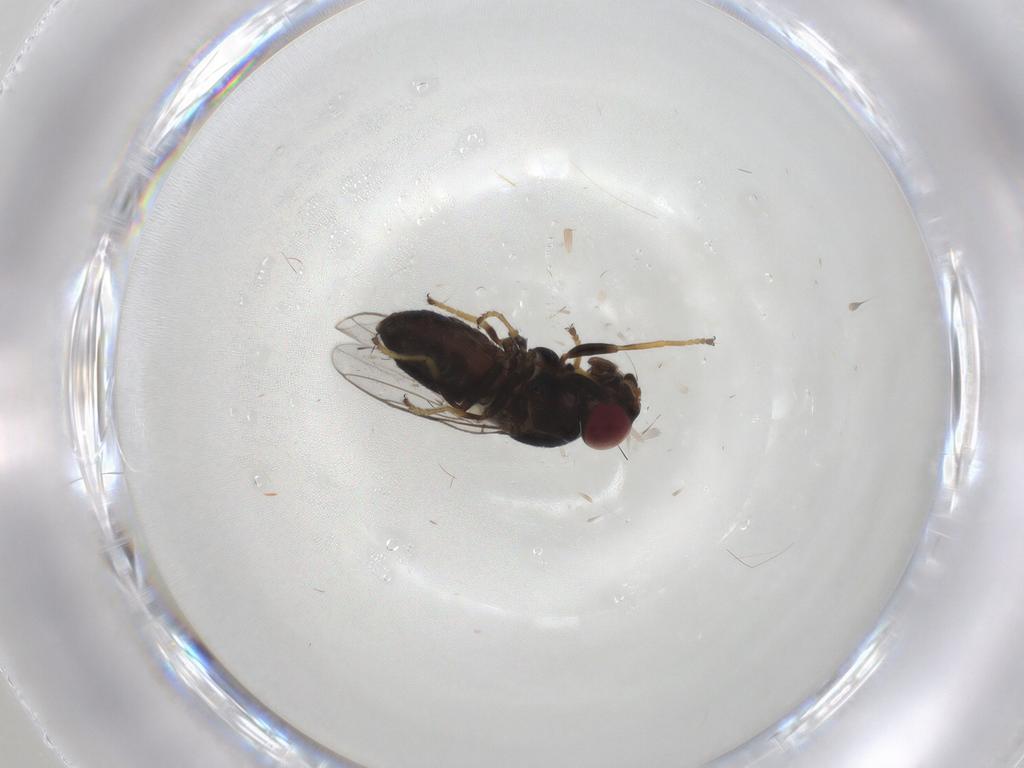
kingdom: Animalia
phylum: Arthropoda
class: Insecta
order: Diptera
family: Chloropidae
